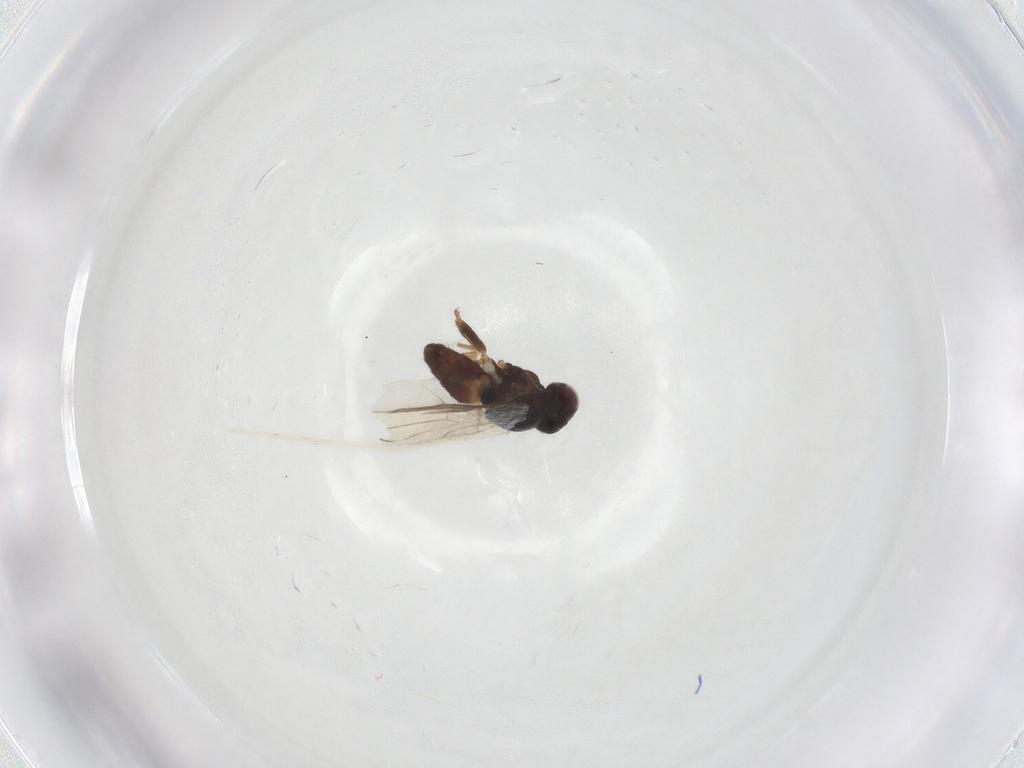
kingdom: Animalia
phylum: Arthropoda
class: Insecta
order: Diptera
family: Chloropidae
